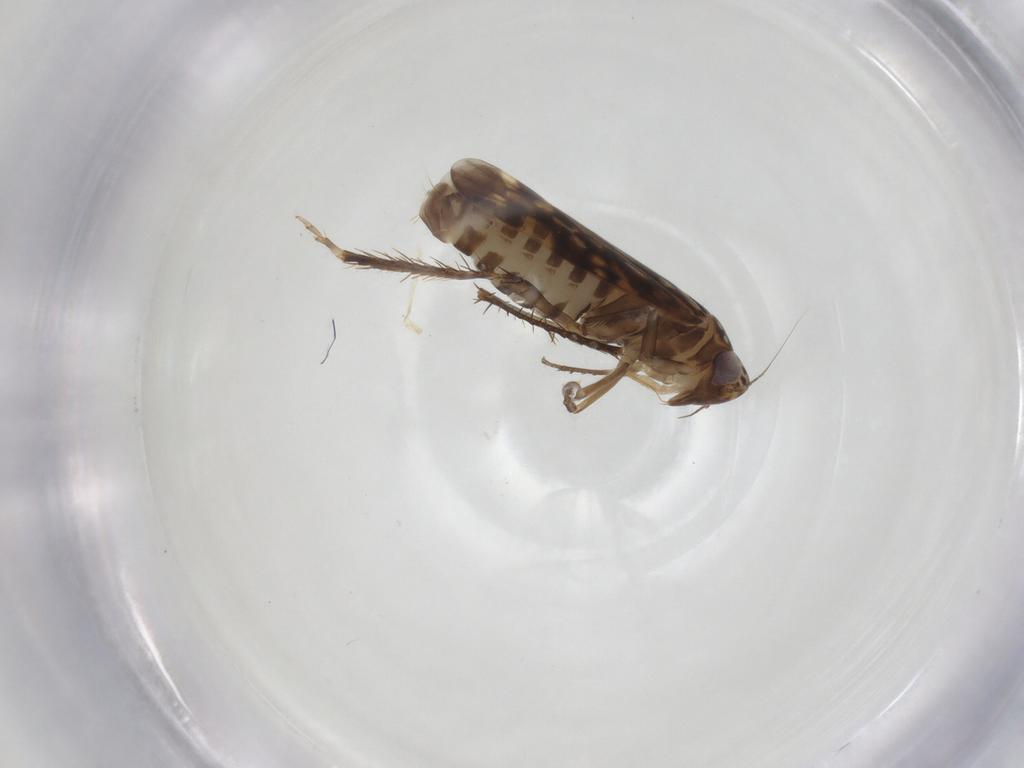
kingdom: Animalia
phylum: Arthropoda
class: Insecta
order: Hemiptera
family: Cicadellidae
